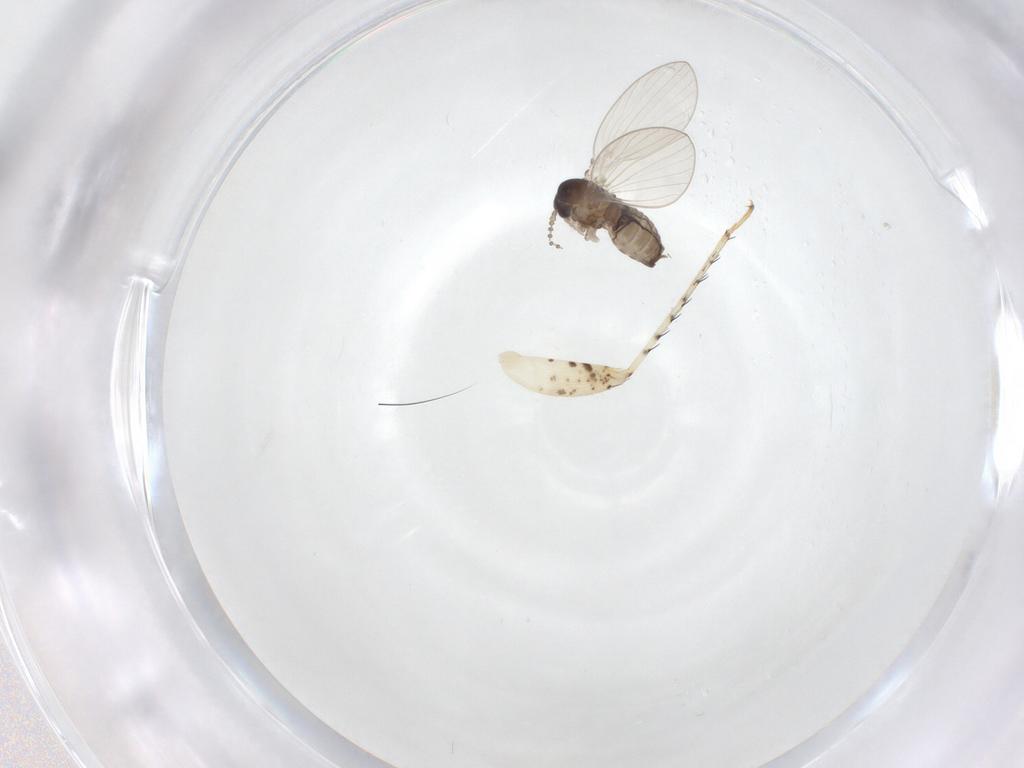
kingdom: Animalia
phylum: Arthropoda
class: Insecta
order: Diptera
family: Psychodidae
